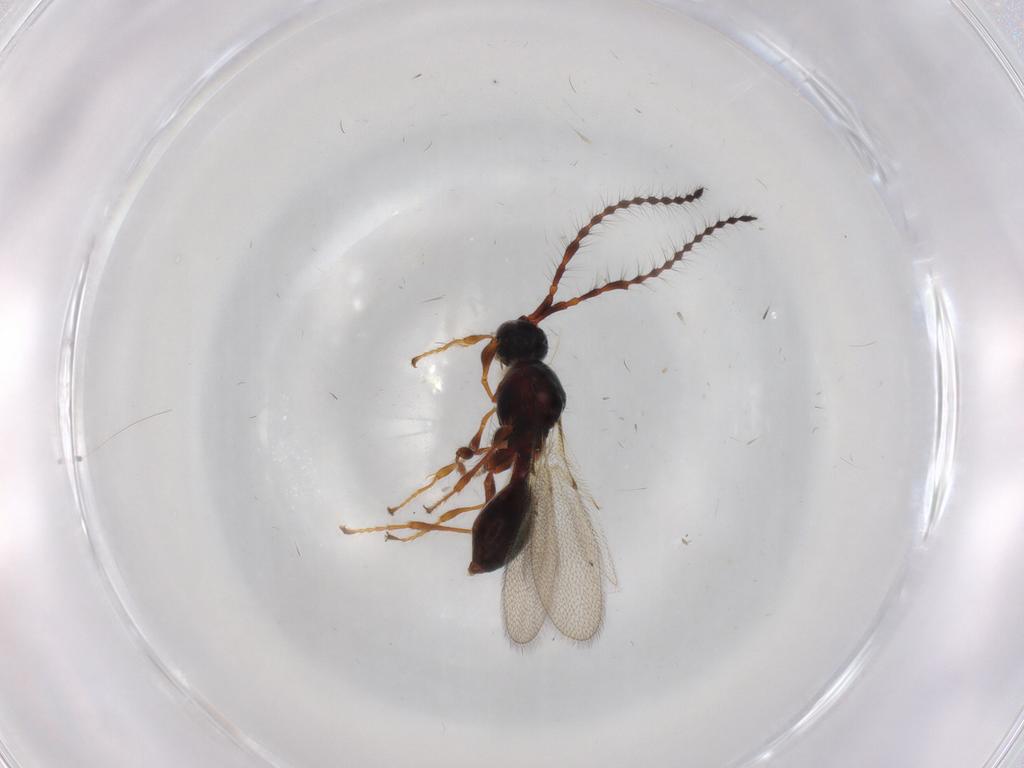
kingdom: Animalia
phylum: Arthropoda
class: Insecta
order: Hymenoptera
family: Diapriidae
